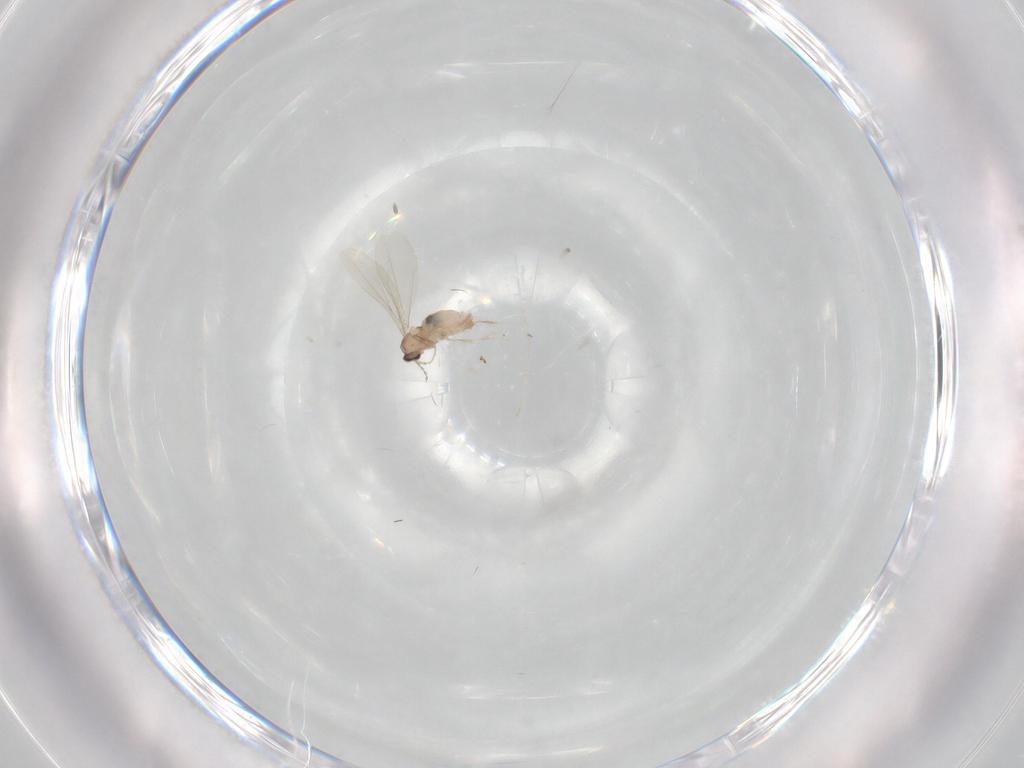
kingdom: Animalia
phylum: Arthropoda
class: Insecta
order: Diptera
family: Cecidomyiidae
